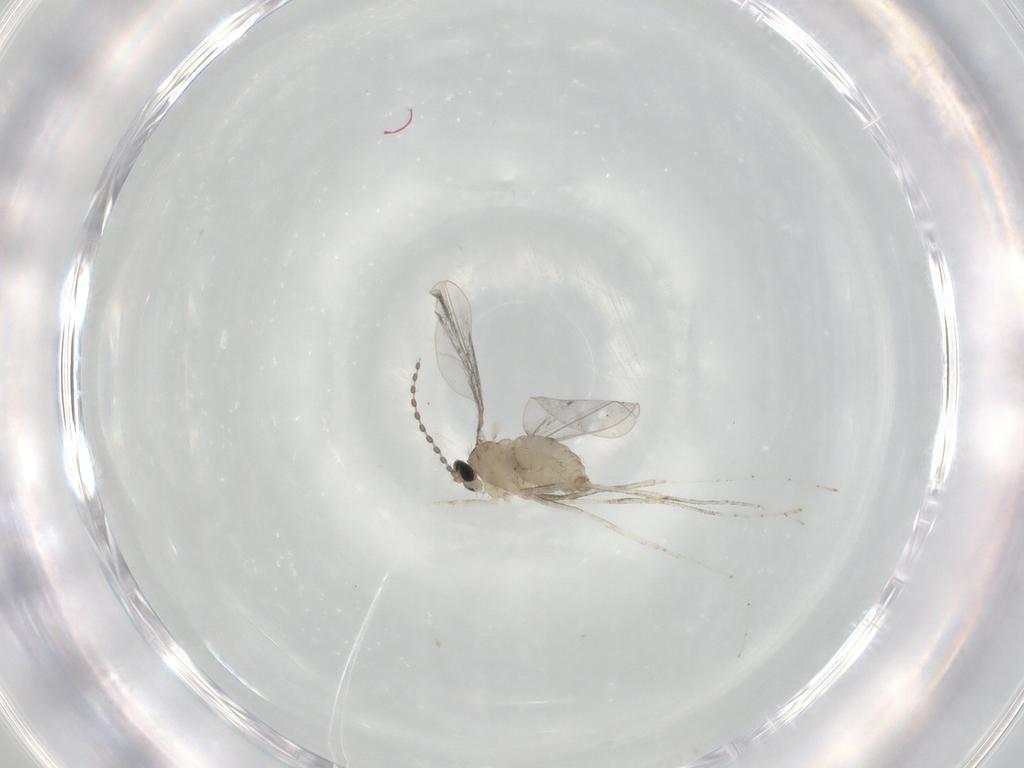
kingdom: Animalia
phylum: Arthropoda
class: Insecta
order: Diptera
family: Cecidomyiidae
